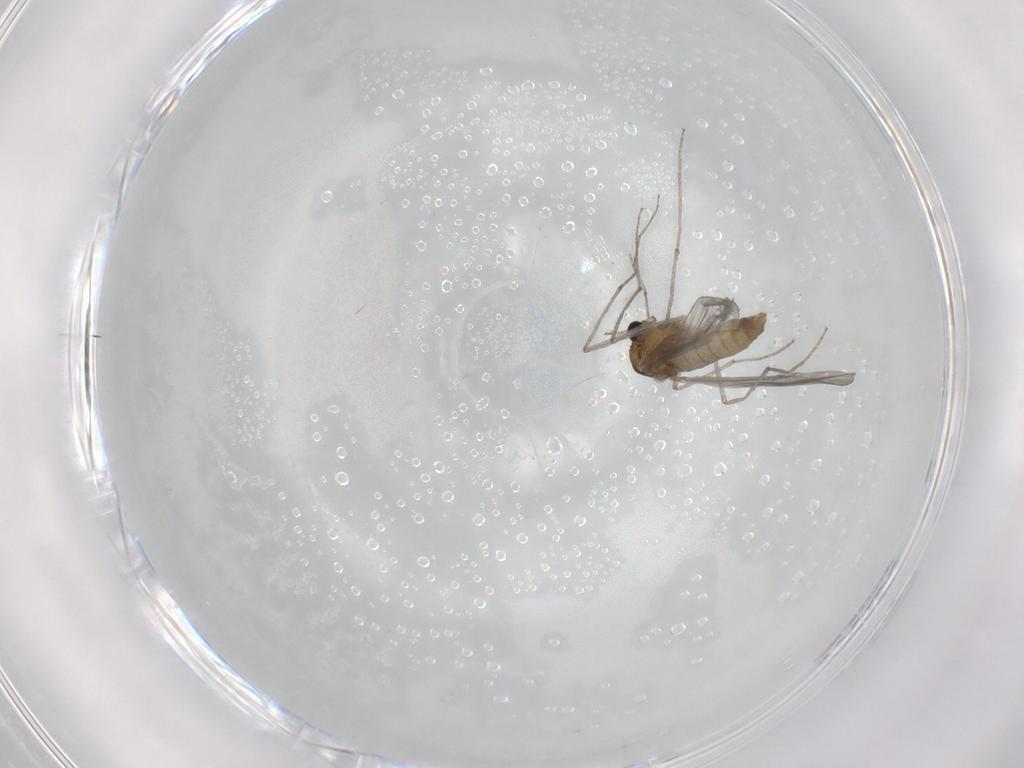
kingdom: Animalia
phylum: Arthropoda
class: Insecta
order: Diptera
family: Chironomidae
